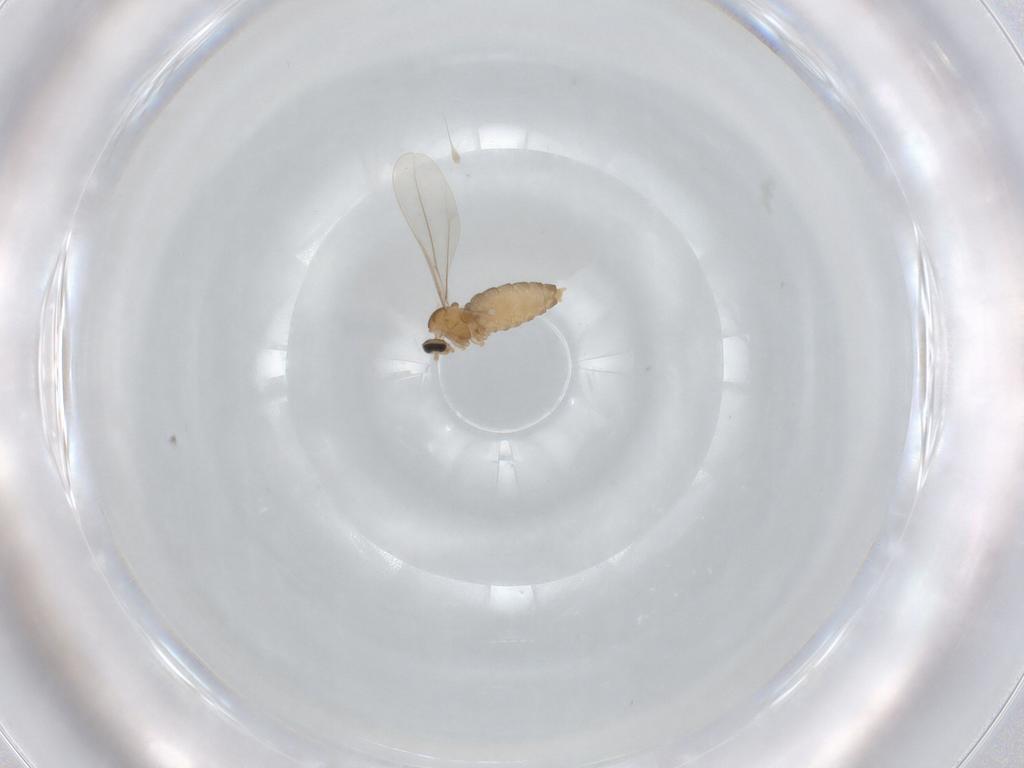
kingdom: Animalia
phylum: Arthropoda
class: Insecta
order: Diptera
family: Cecidomyiidae
